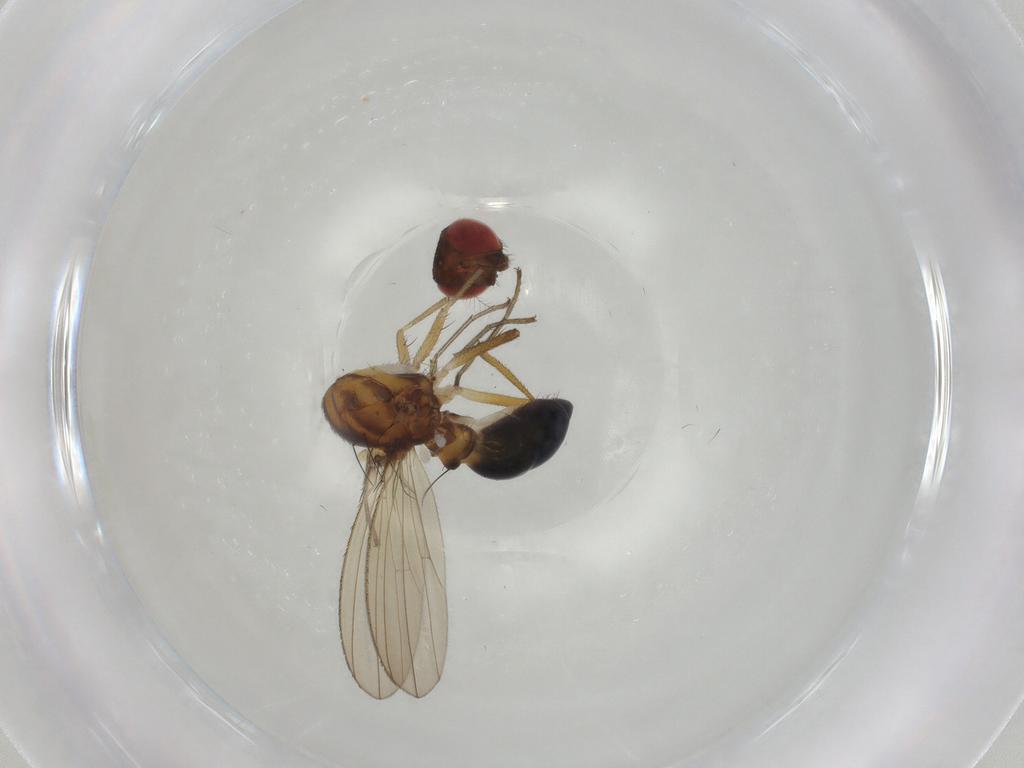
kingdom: Animalia
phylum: Arthropoda
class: Insecta
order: Diptera
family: Drosophilidae
